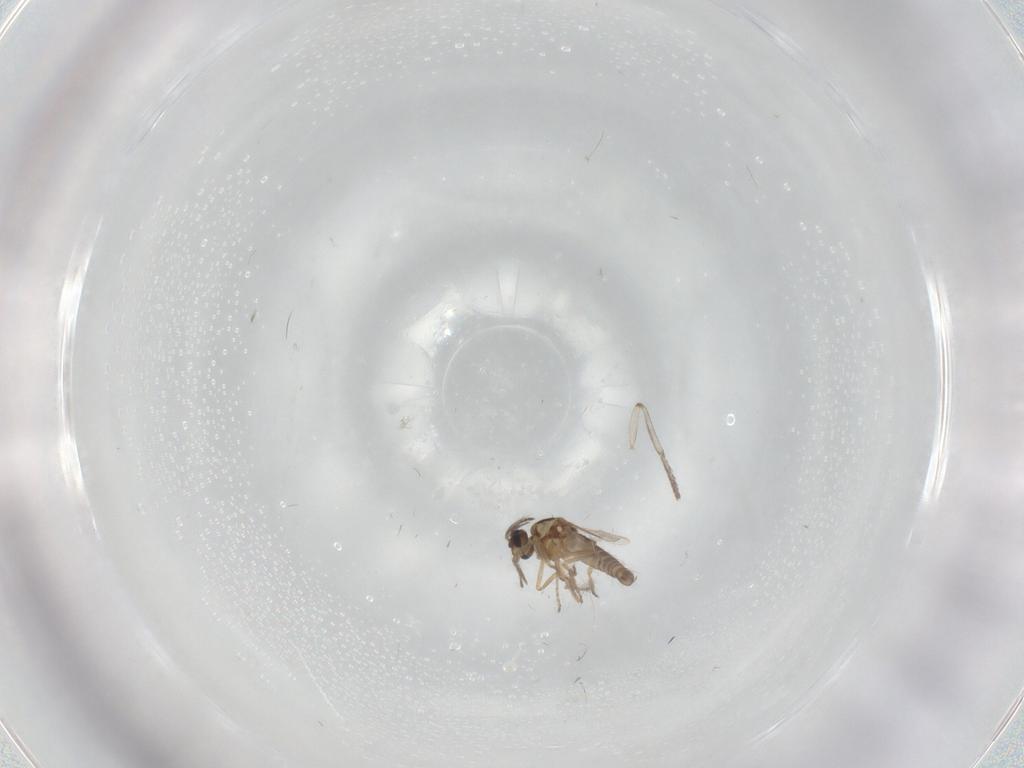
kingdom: Animalia
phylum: Arthropoda
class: Insecta
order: Diptera
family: Ceratopogonidae
